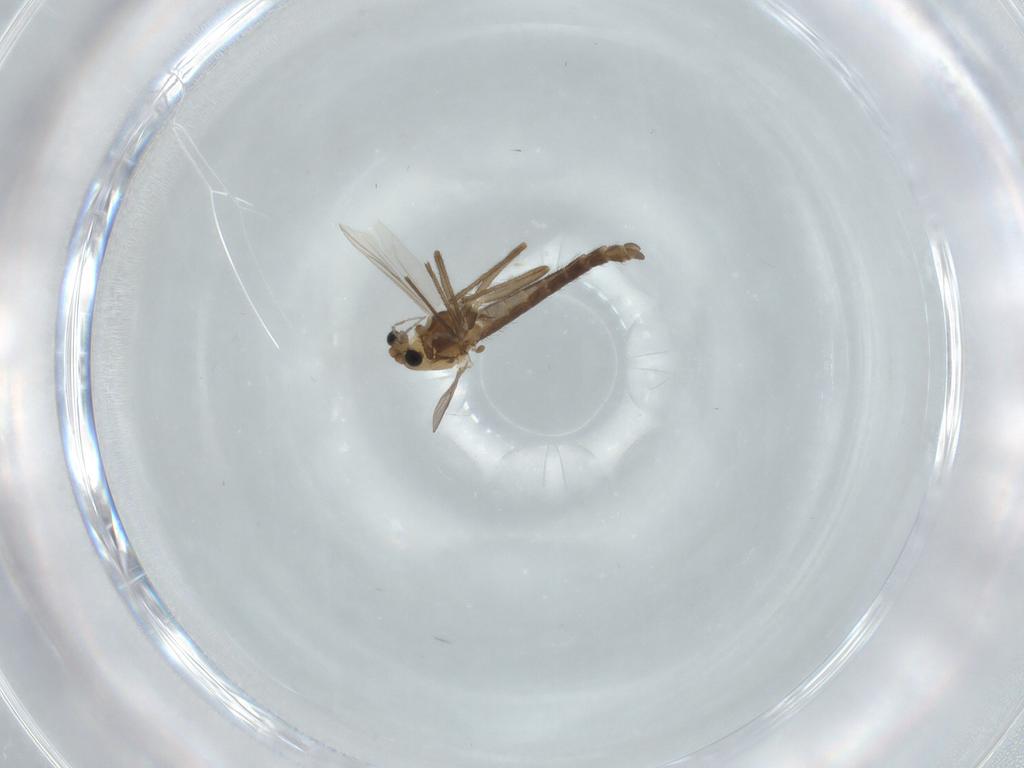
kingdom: Animalia
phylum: Arthropoda
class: Insecta
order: Diptera
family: Chironomidae
